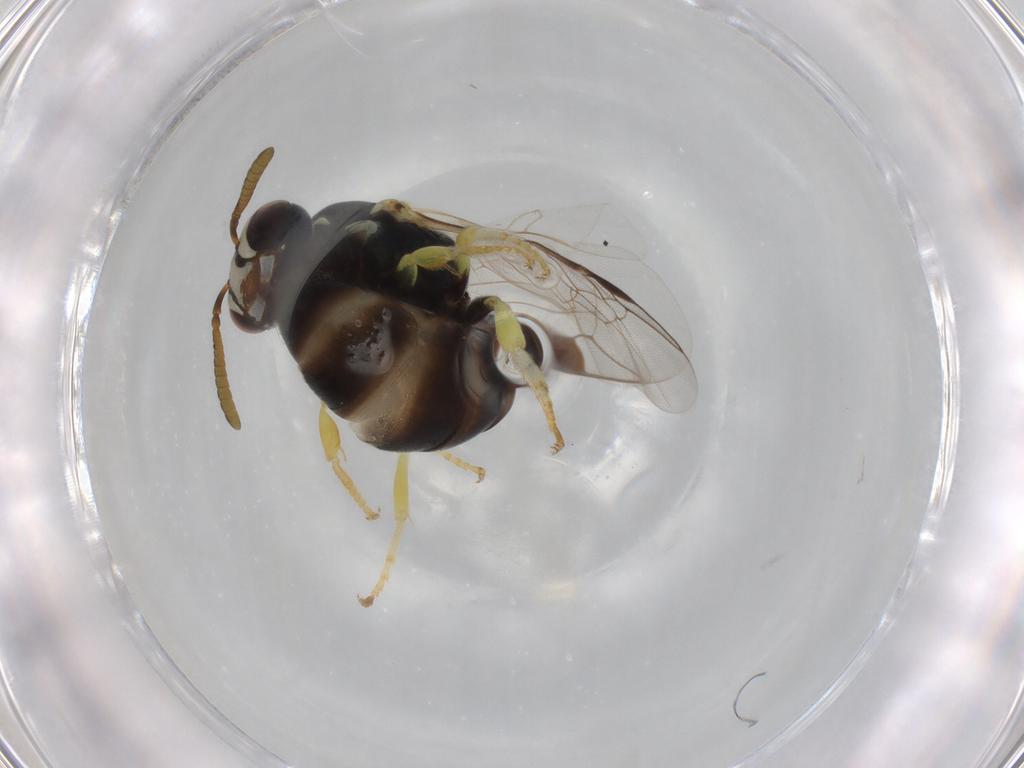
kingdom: Animalia
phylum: Arthropoda
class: Insecta
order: Hymenoptera
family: Colletidae
